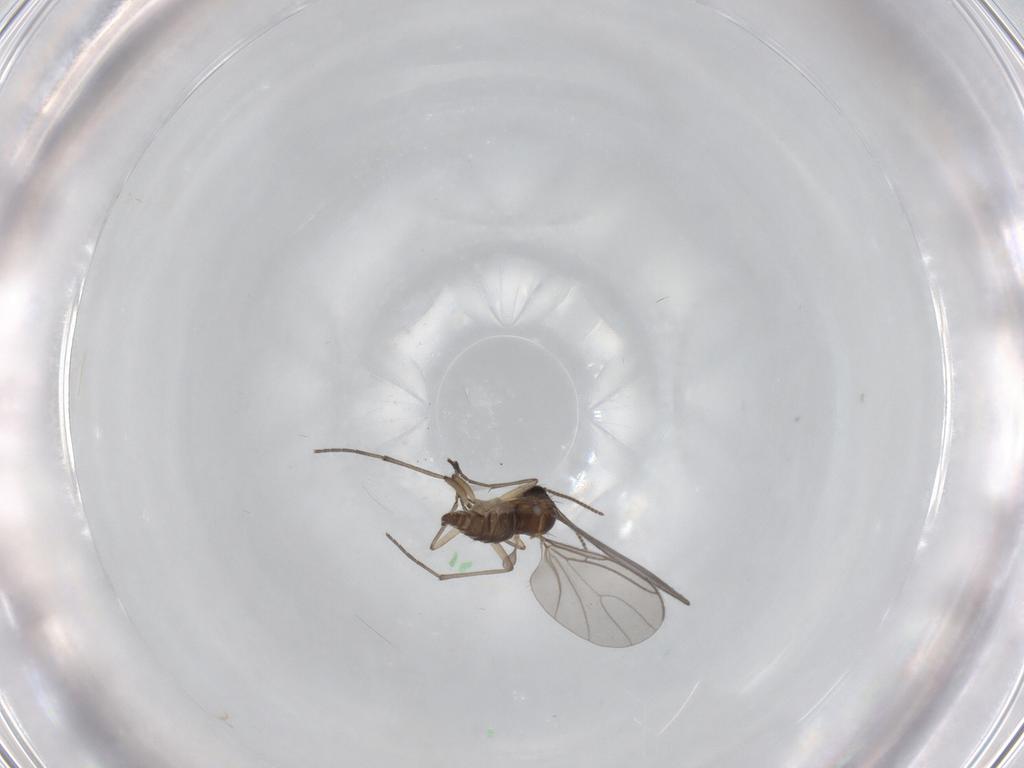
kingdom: Animalia
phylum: Arthropoda
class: Insecta
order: Diptera
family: Sciaridae
